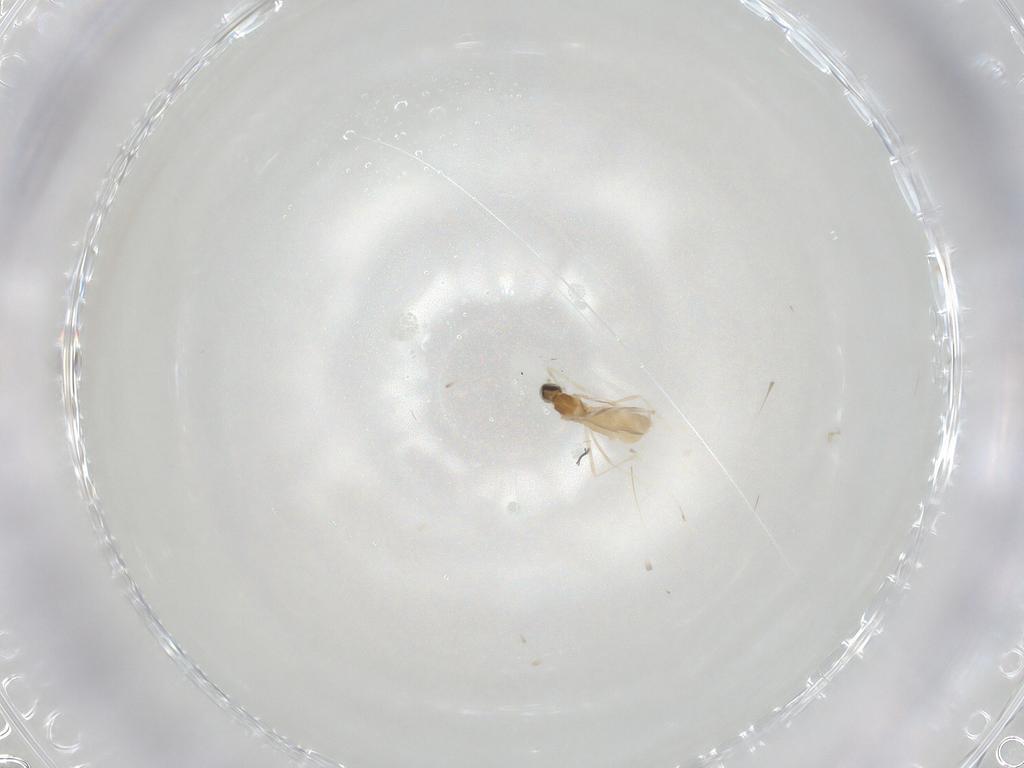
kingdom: Animalia
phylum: Arthropoda
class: Insecta
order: Diptera
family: Cecidomyiidae
